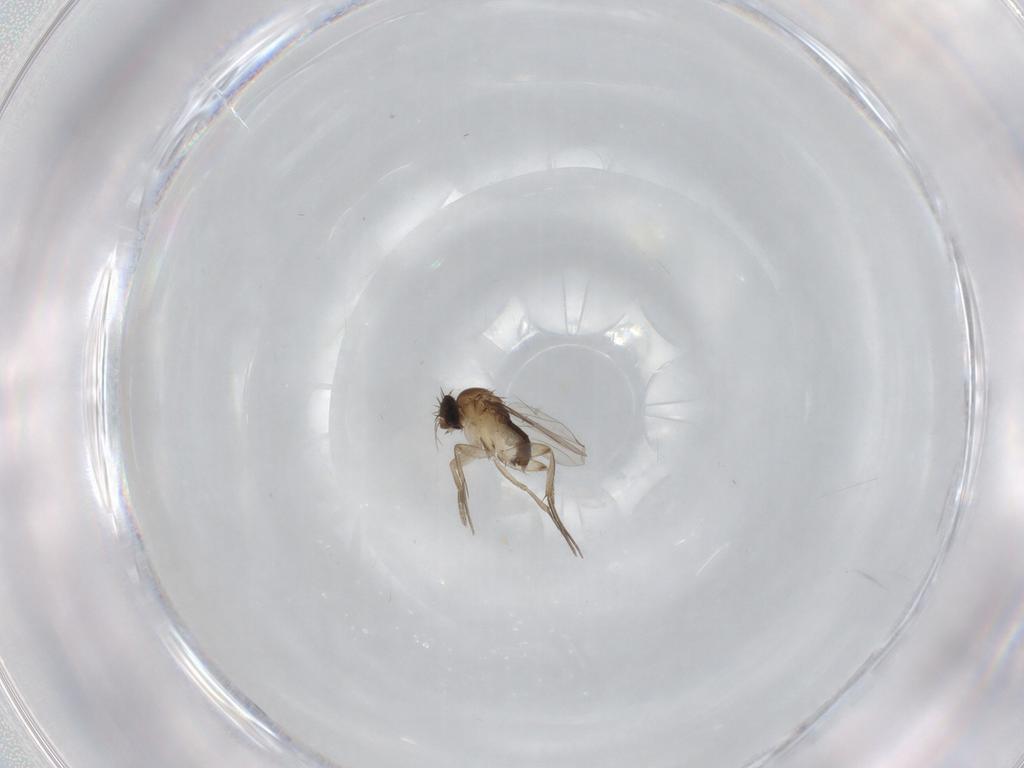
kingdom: Animalia
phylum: Arthropoda
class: Insecta
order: Diptera
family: Phoridae
